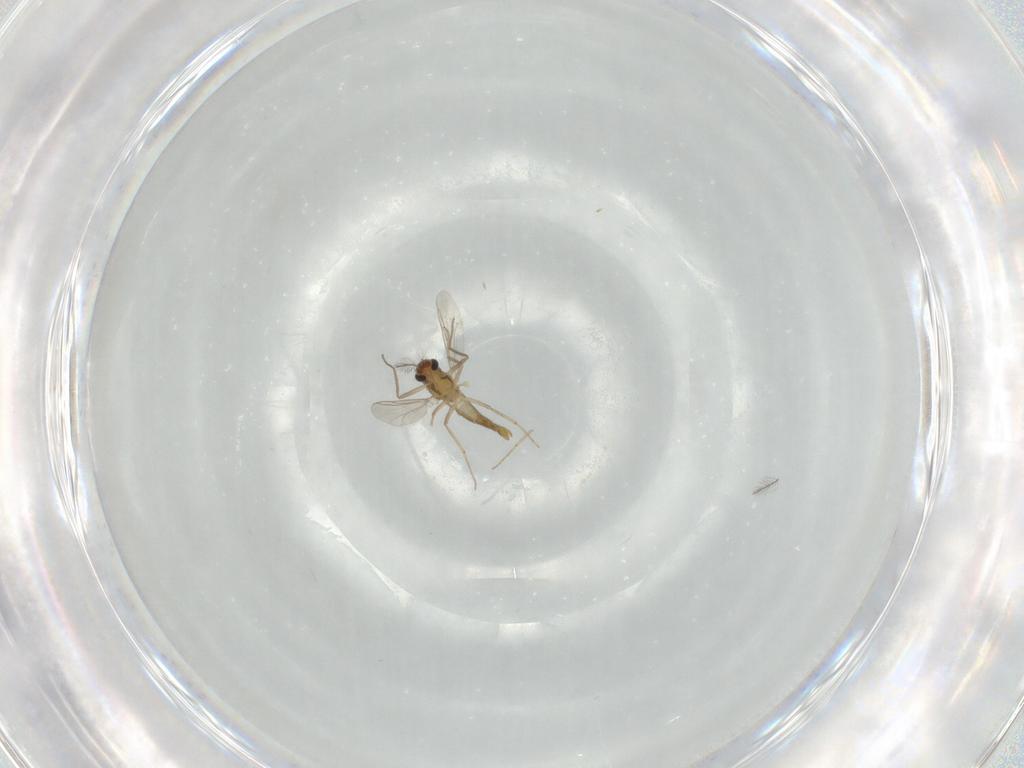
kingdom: Animalia
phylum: Arthropoda
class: Insecta
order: Diptera
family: Chironomidae
